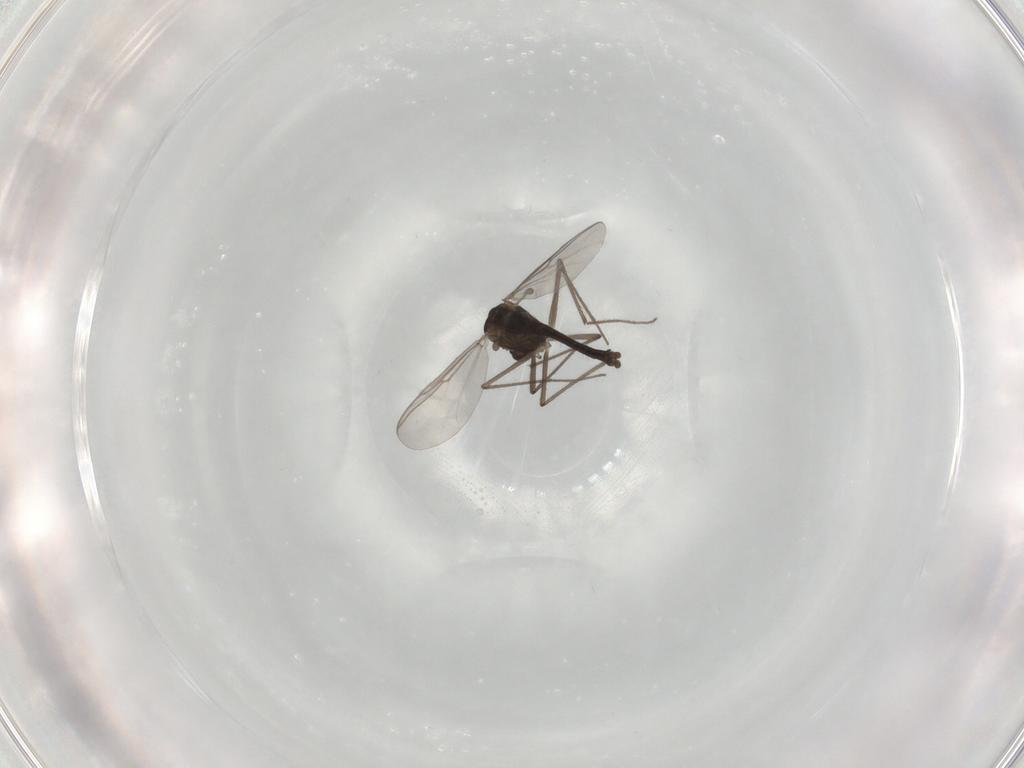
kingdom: Animalia
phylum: Arthropoda
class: Insecta
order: Diptera
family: Chironomidae
